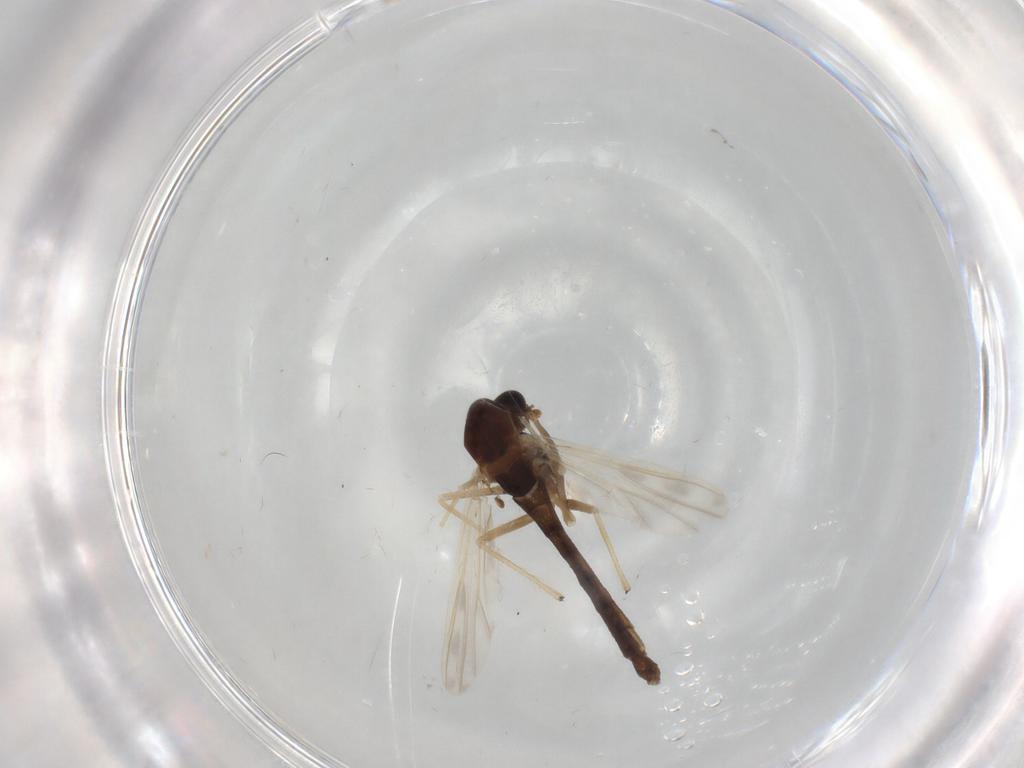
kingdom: Animalia
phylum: Arthropoda
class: Insecta
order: Diptera
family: Chironomidae
